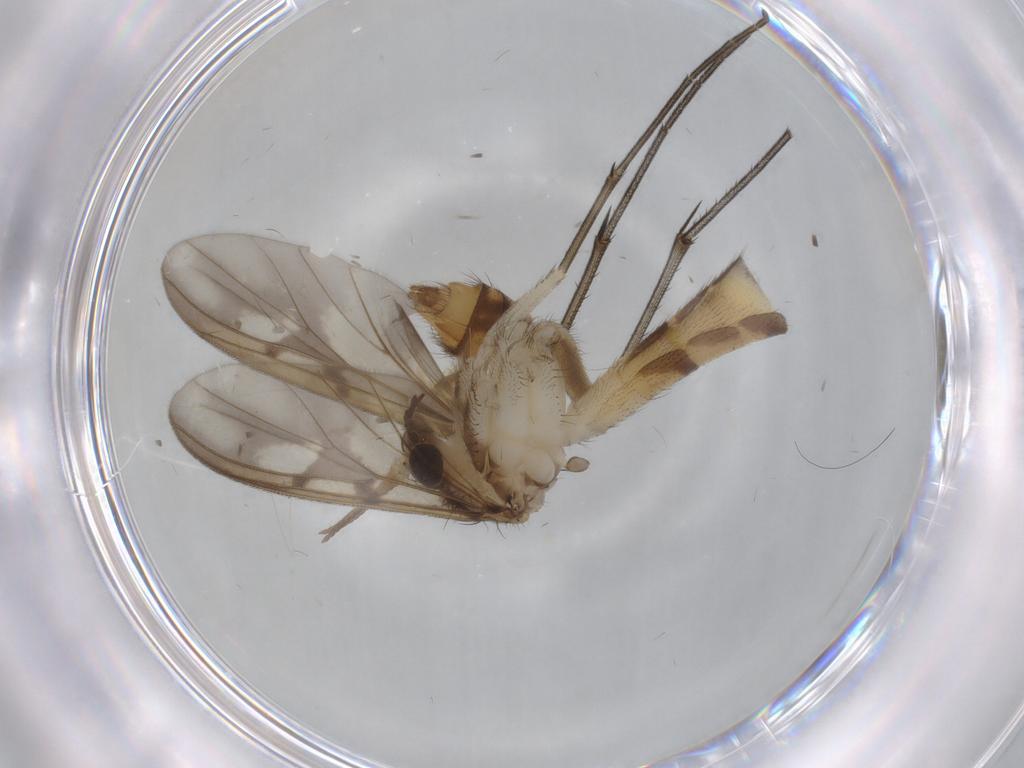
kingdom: Animalia
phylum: Arthropoda
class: Insecta
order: Diptera
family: Mycetophilidae
